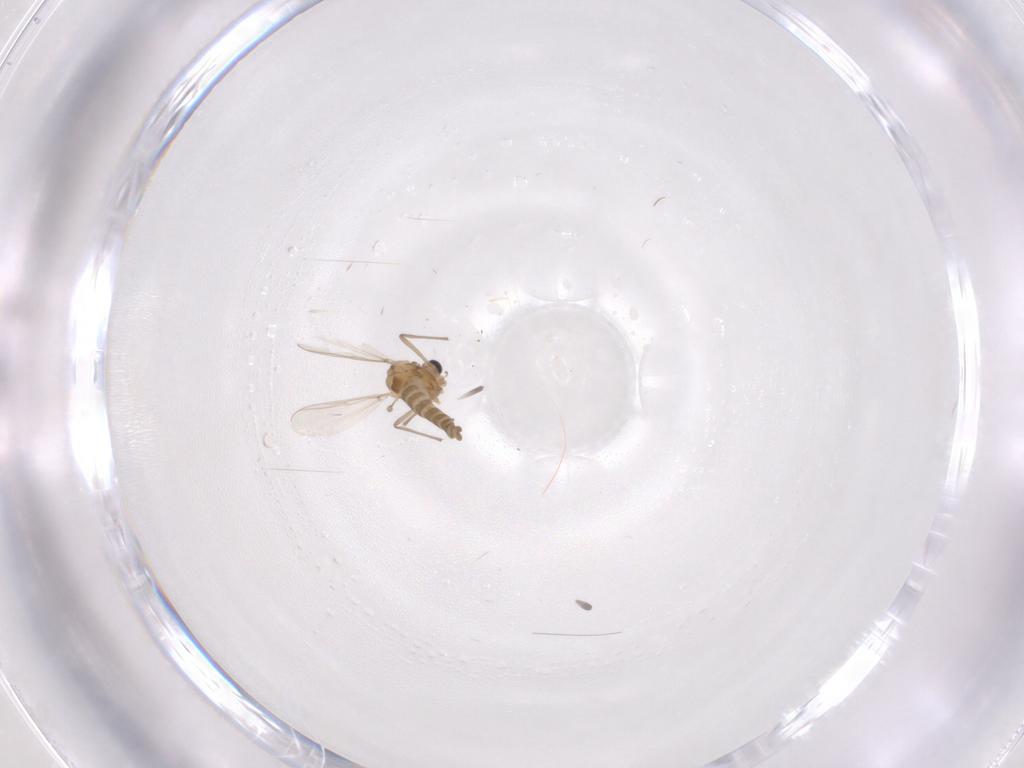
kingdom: Animalia
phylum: Arthropoda
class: Insecta
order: Diptera
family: Chironomidae
